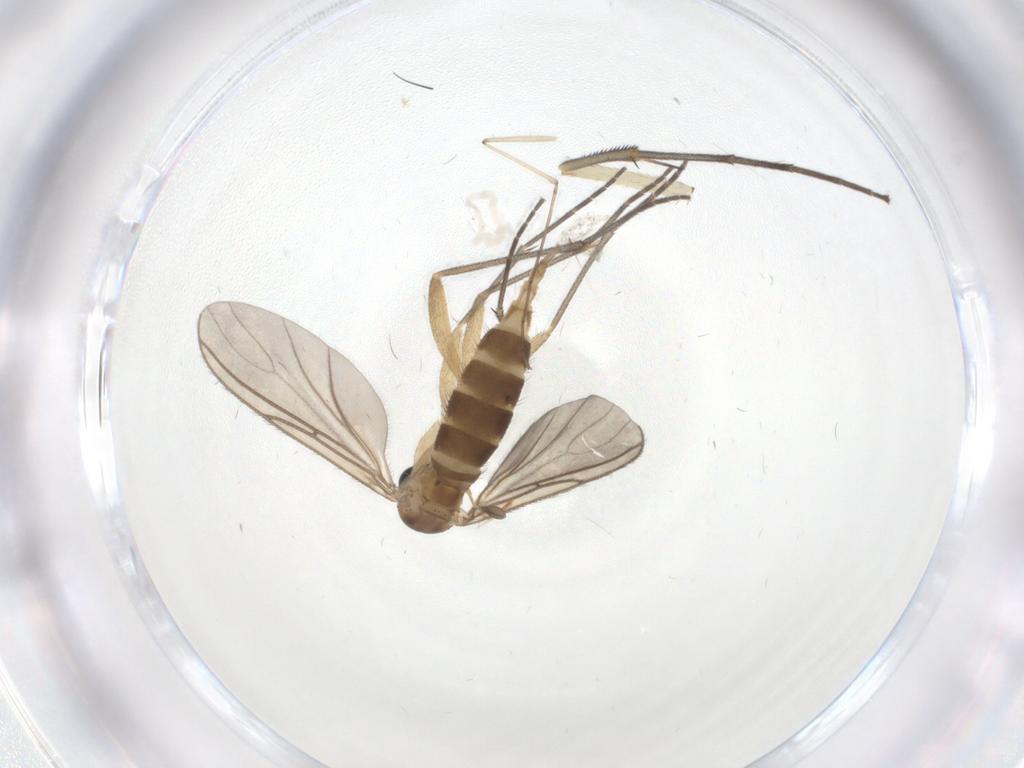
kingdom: Animalia
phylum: Arthropoda
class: Insecta
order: Diptera
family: Sciaridae
